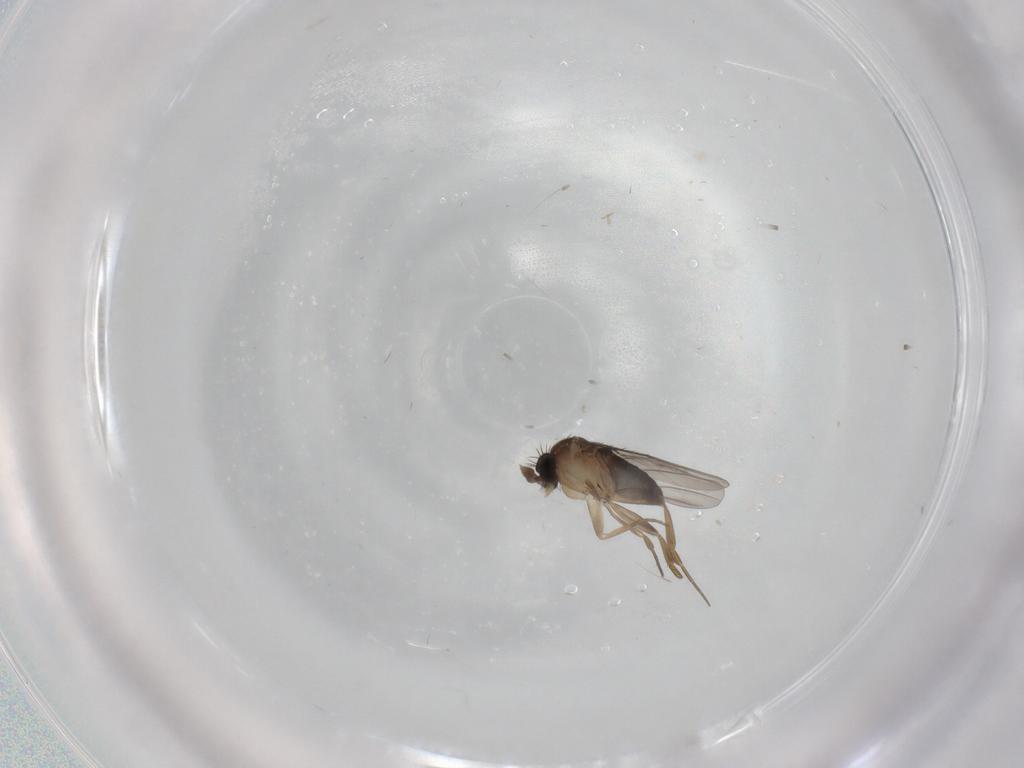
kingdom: Animalia
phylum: Arthropoda
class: Insecta
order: Diptera
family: Phoridae
